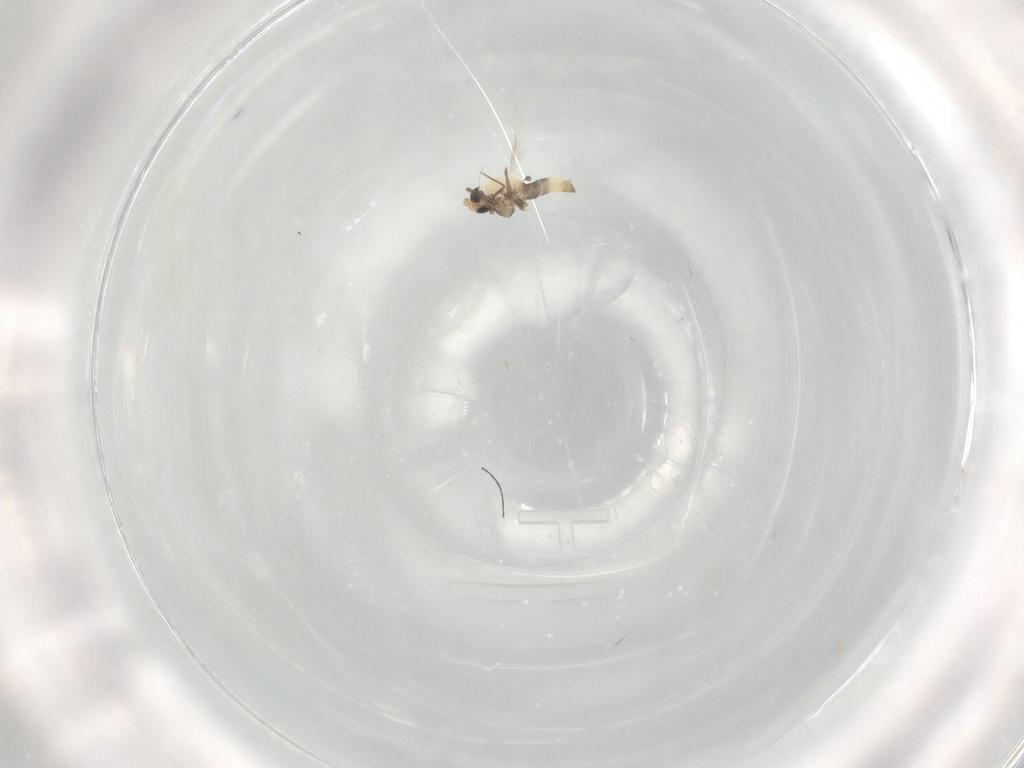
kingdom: Animalia
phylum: Arthropoda
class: Insecta
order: Diptera
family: Chironomidae
